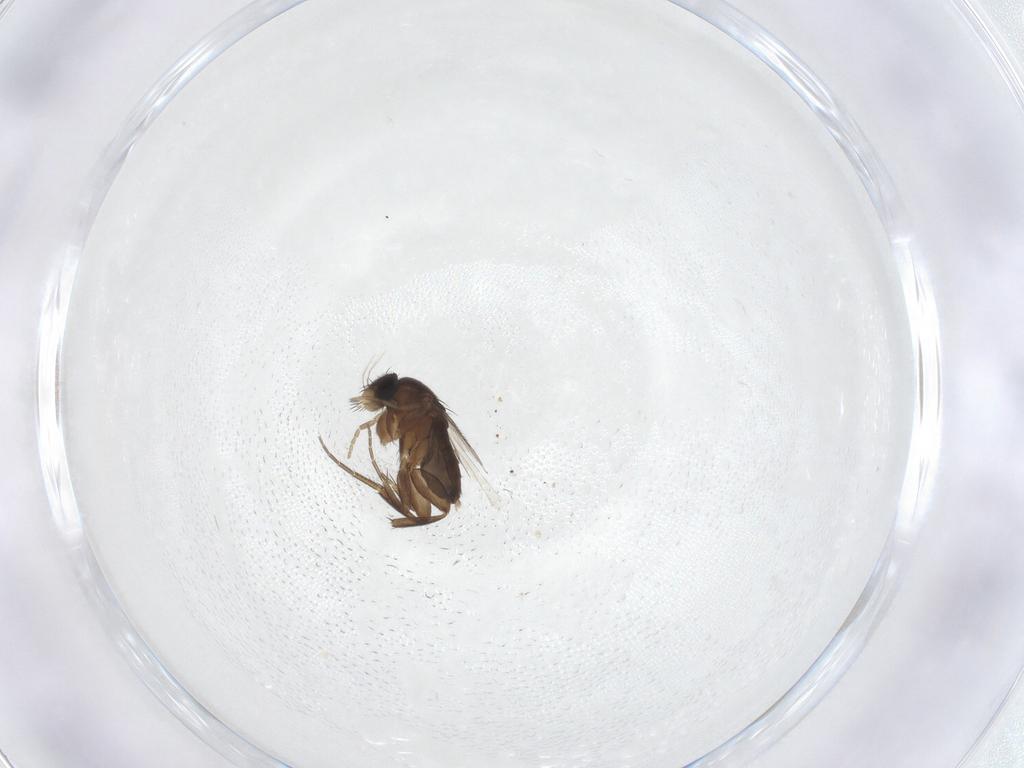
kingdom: Animalia
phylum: Arthropoda
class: Insecta
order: Diptera
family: Phoridae
